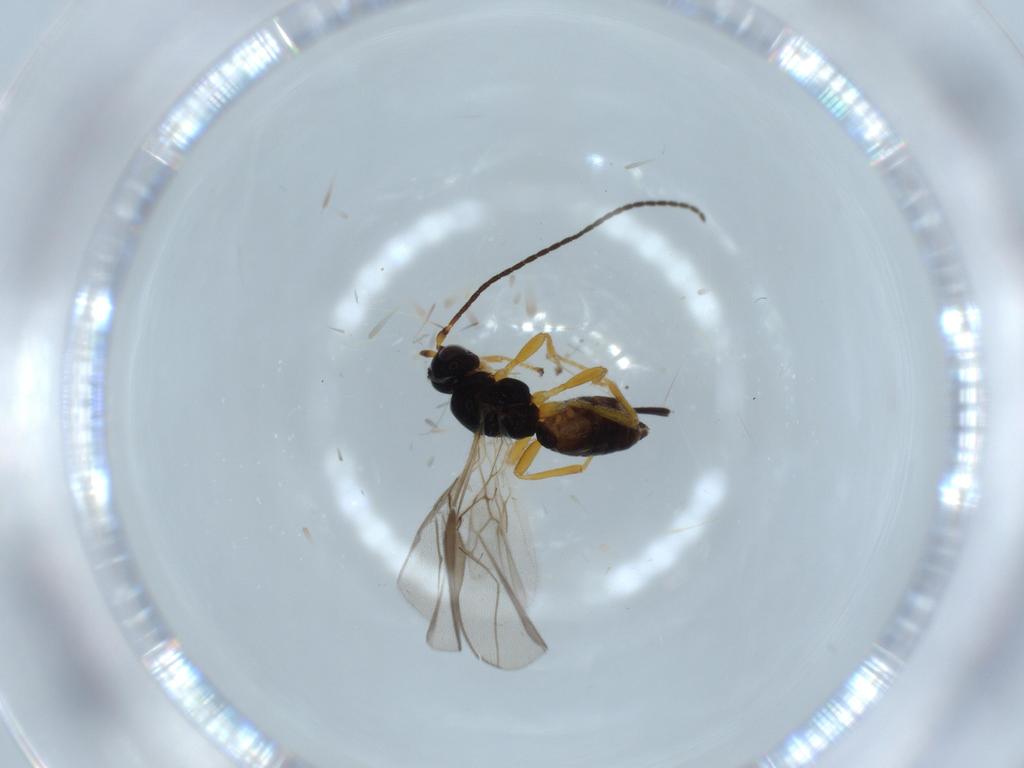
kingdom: Animalia
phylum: Arthropoda
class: Insecta
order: Hymenoptera
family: Braconidae
